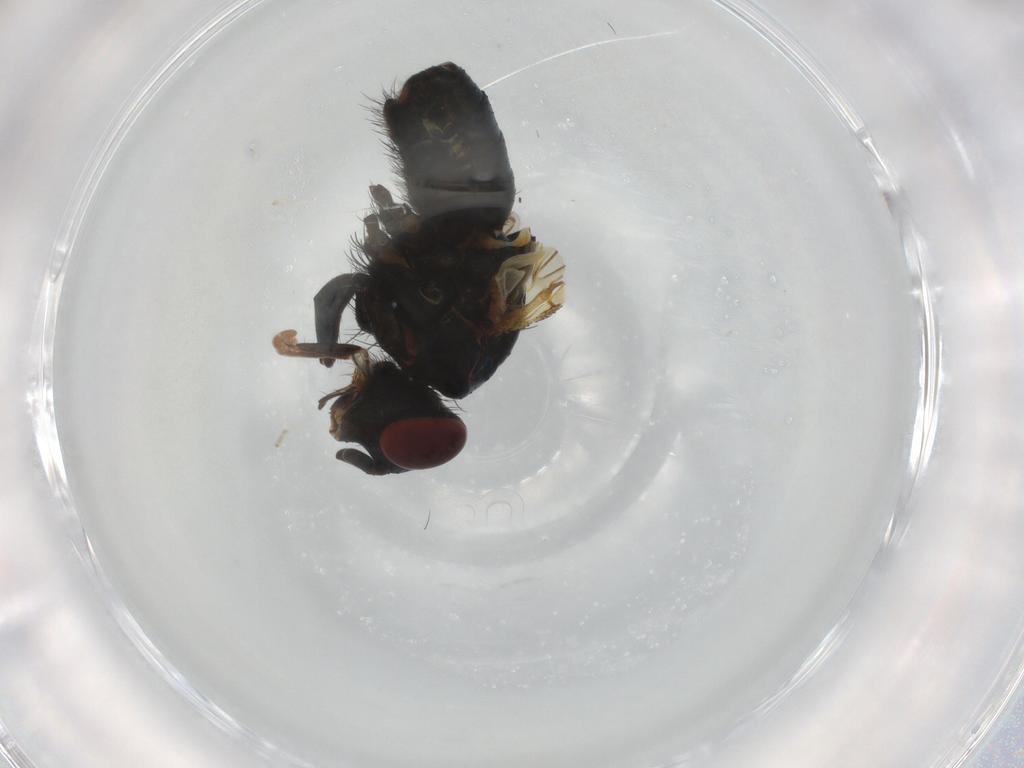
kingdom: Animalia
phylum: Arthropoda
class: Insecta
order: Diptera
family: Calliphoridae
